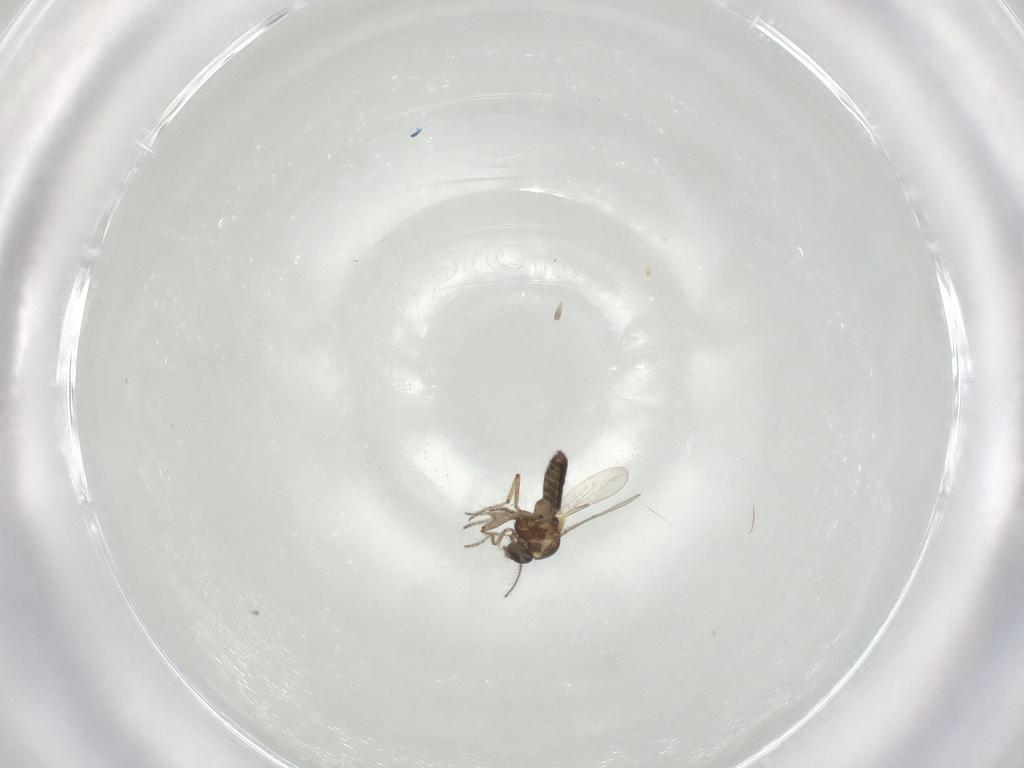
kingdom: Animalia
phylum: Arthropoda
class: Insecta
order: Diptera
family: Ceratopogonidae
